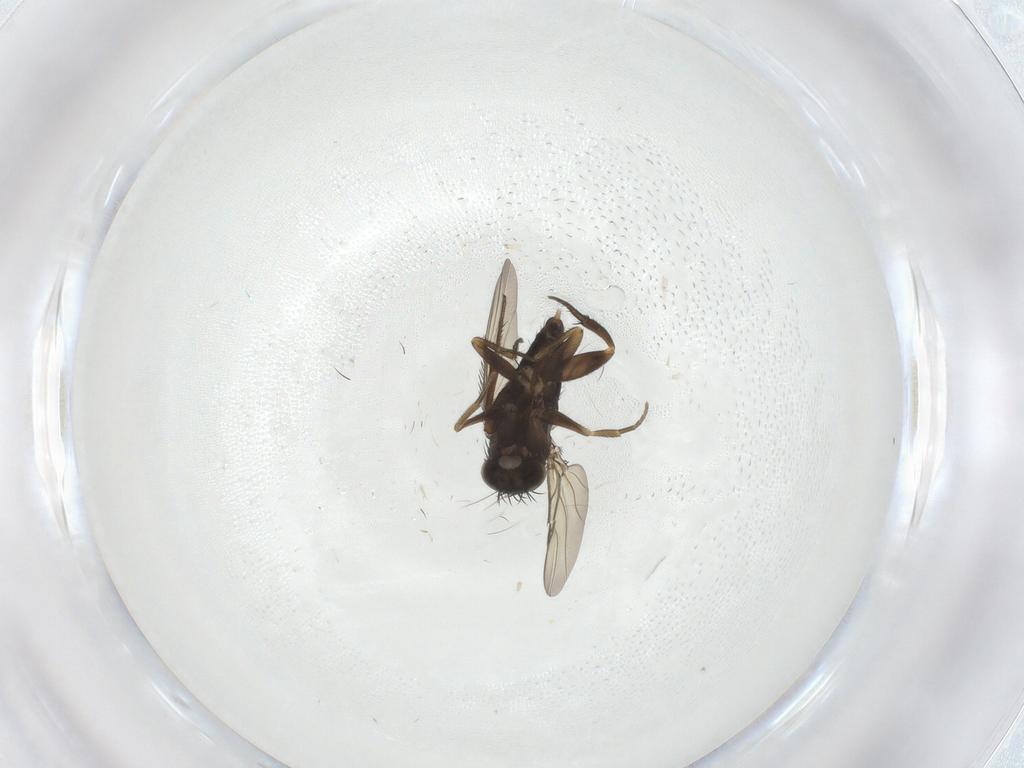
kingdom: Animalia
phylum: Arthropoda
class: Insecta
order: Diptera
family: Phoridae
